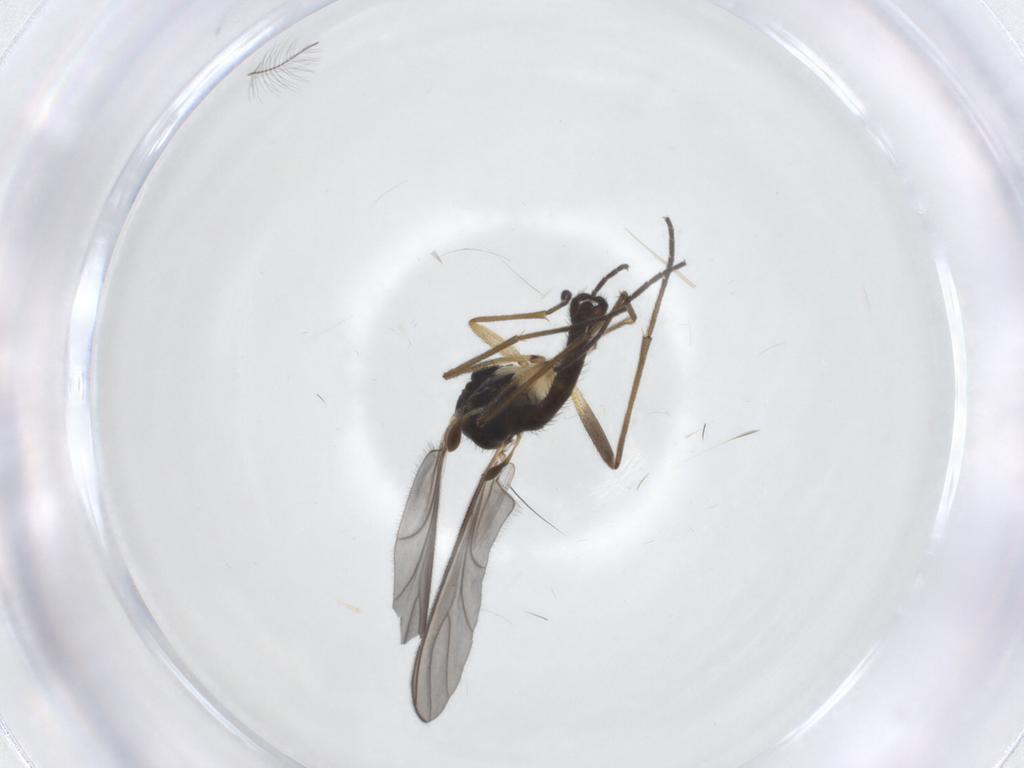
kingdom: Animalia
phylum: Arthropoda
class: Insecta
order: Diptera
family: Sciaridae
